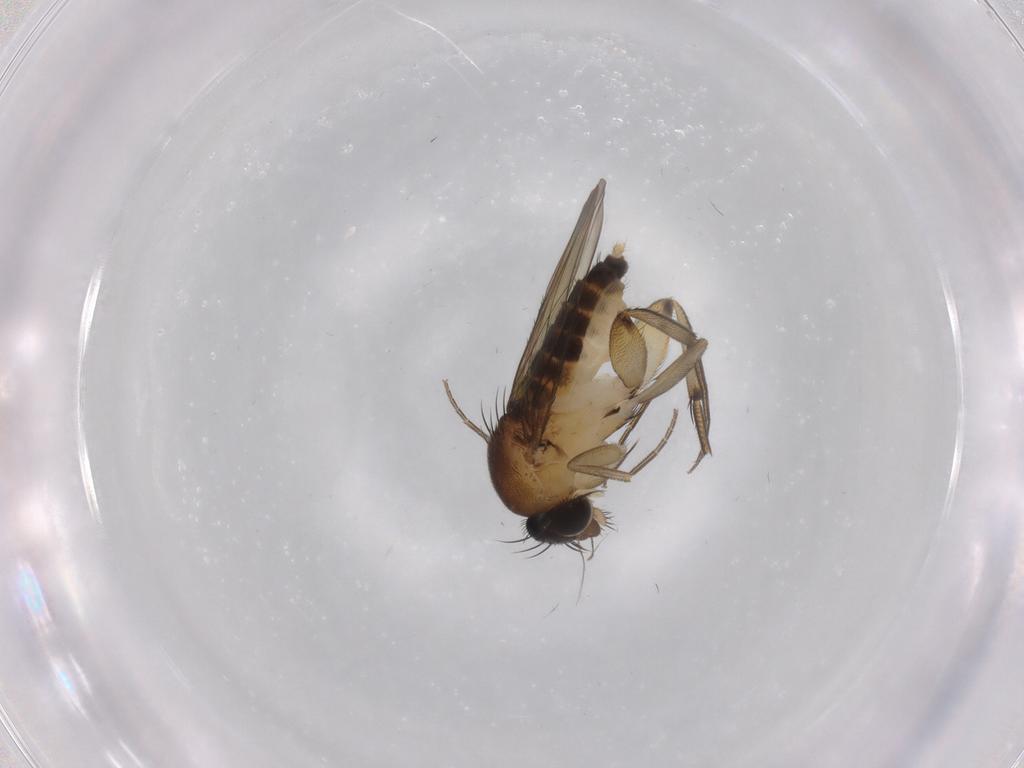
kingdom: Animalia
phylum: Arthropoda
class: Insecta
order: Diptera
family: Phoridae
